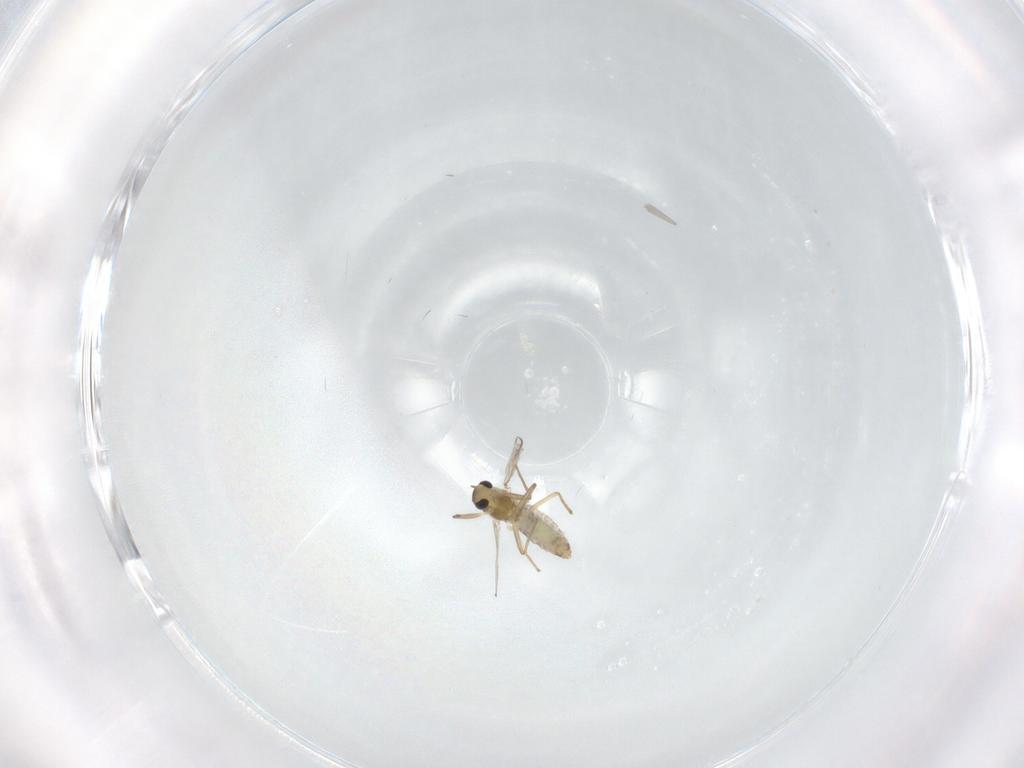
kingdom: Animalia
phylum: Arthropoda
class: Insecta
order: Diptera
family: Chironomidae
